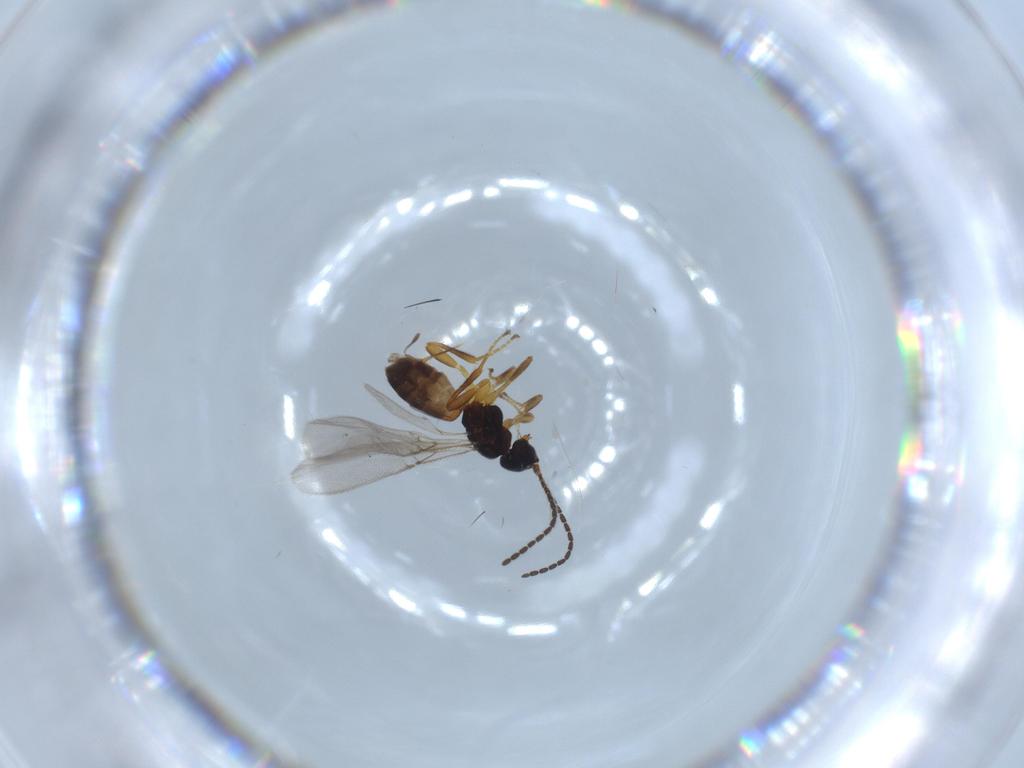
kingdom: Animalia
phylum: Arthropoda
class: Insecta
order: Hymenoptera
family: Braconidae
